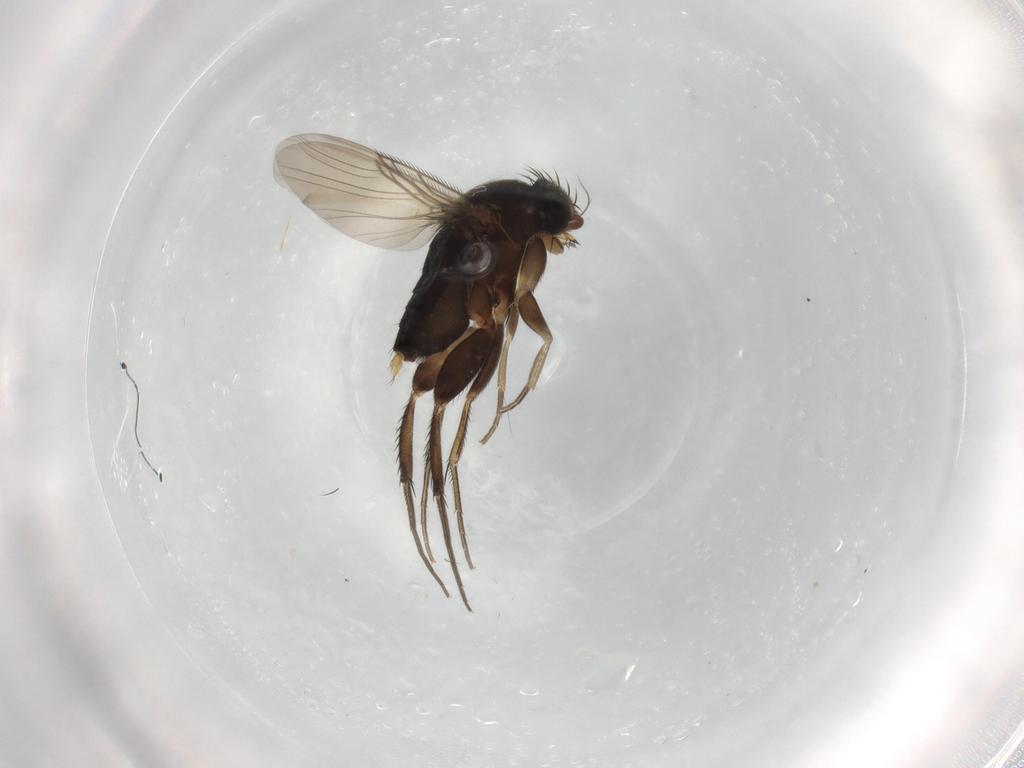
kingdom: Animalia
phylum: Arthropoda
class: Insecta
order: Diptera
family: Phoridae
